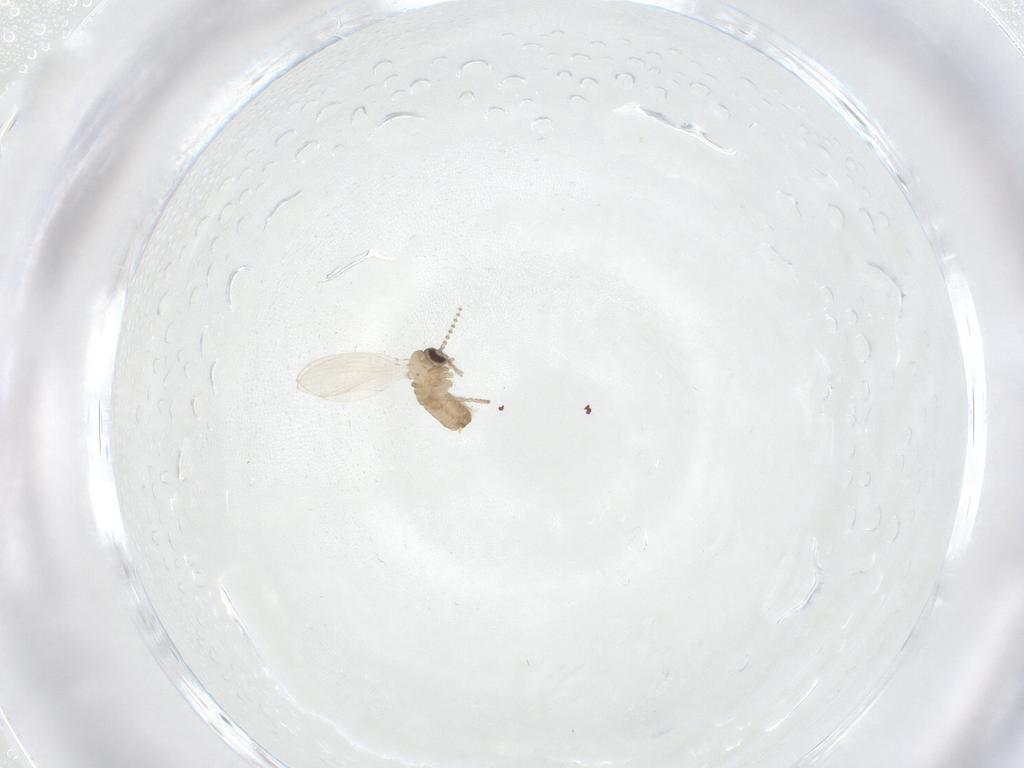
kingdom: Animalia
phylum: Arthropoda
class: Insecta
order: Diptera
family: Psychodidae
